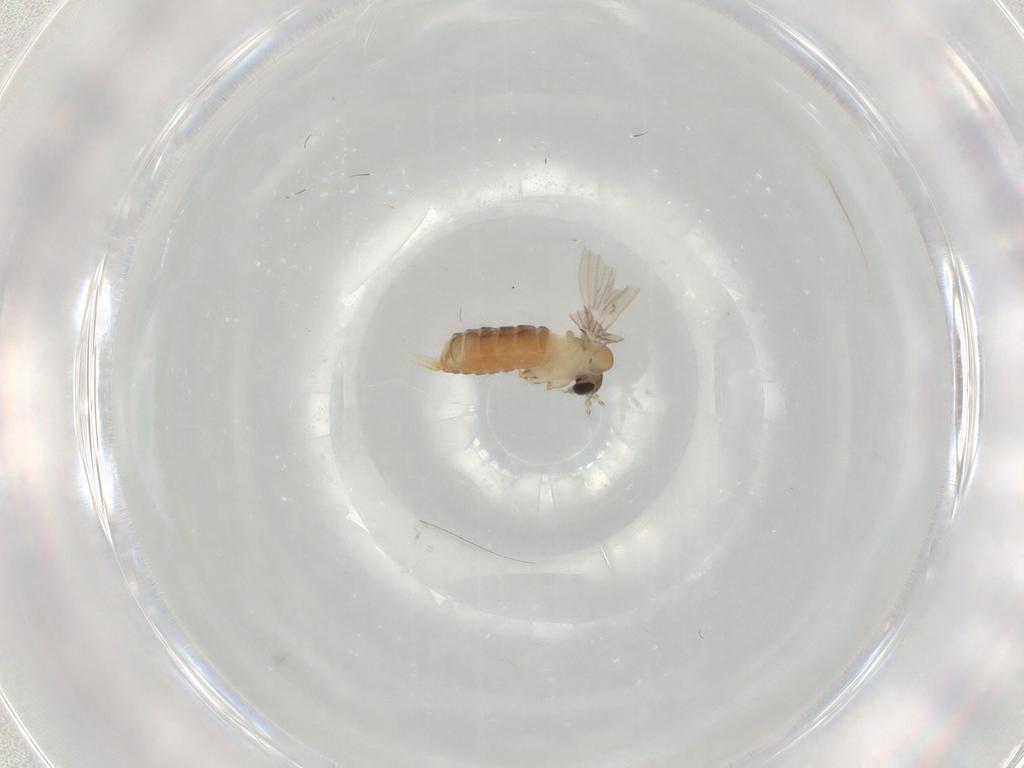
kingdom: Animalia
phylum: Arthropoda
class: Insecta
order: Diptera
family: Psychodidae
